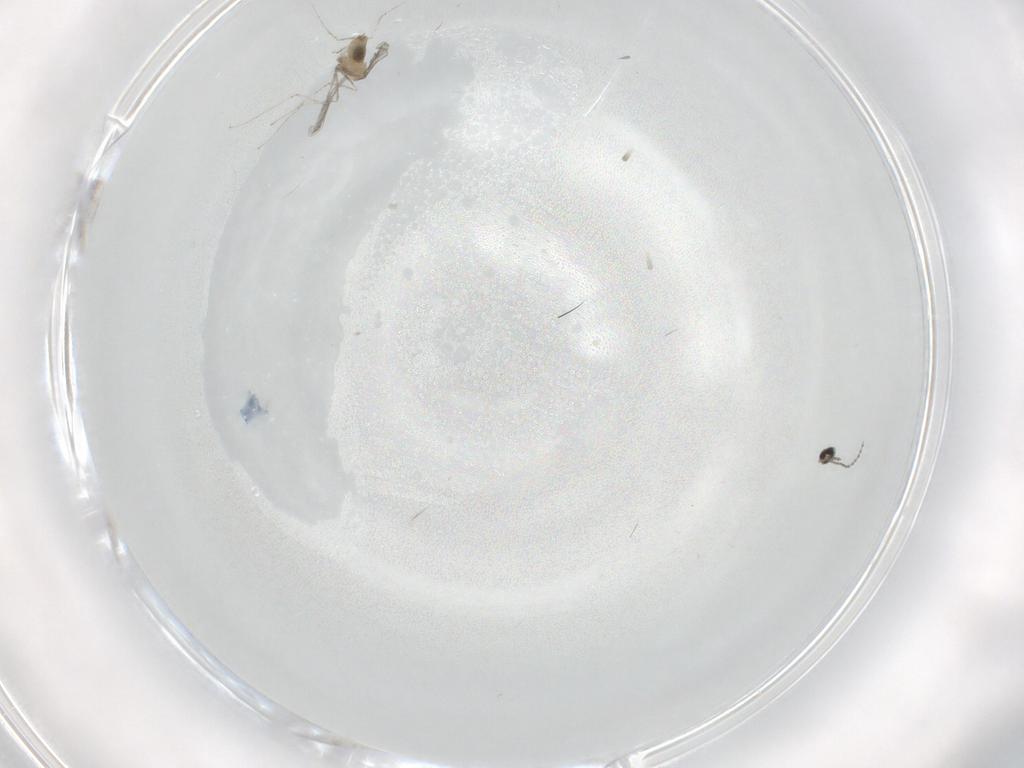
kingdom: Animalia
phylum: Arthropoda
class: Insecta
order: Diptera
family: Cecidomyiidae
